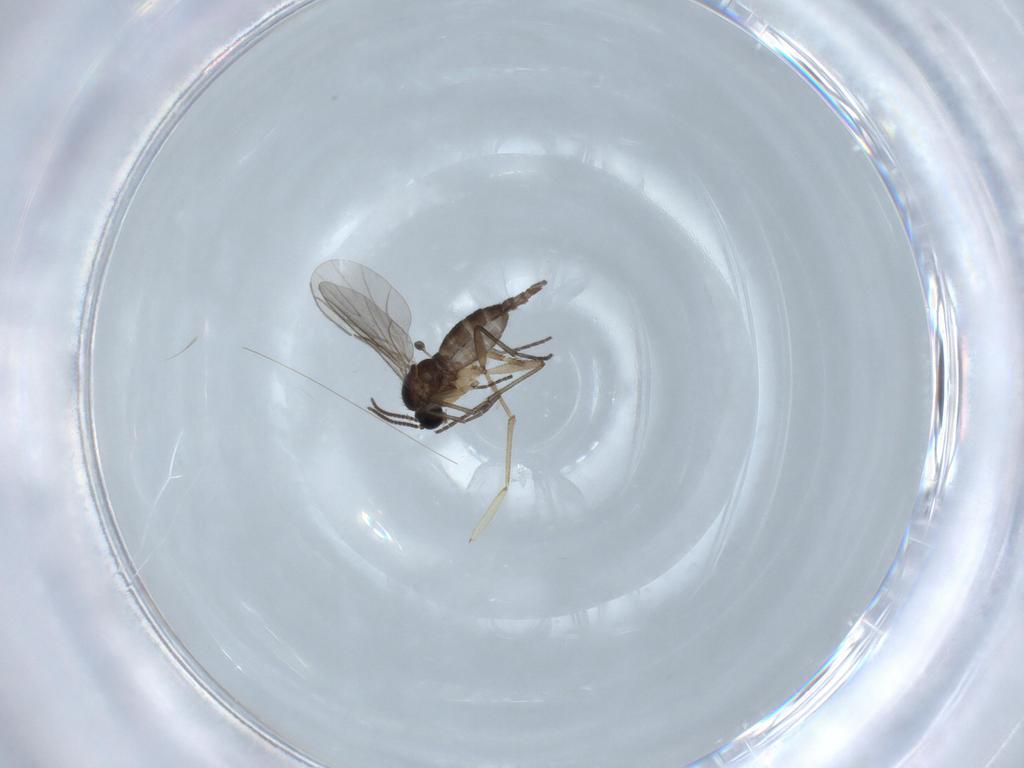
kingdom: Animalia
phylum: Arthropoda
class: Insecta
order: Diptera
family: Sciaridae
